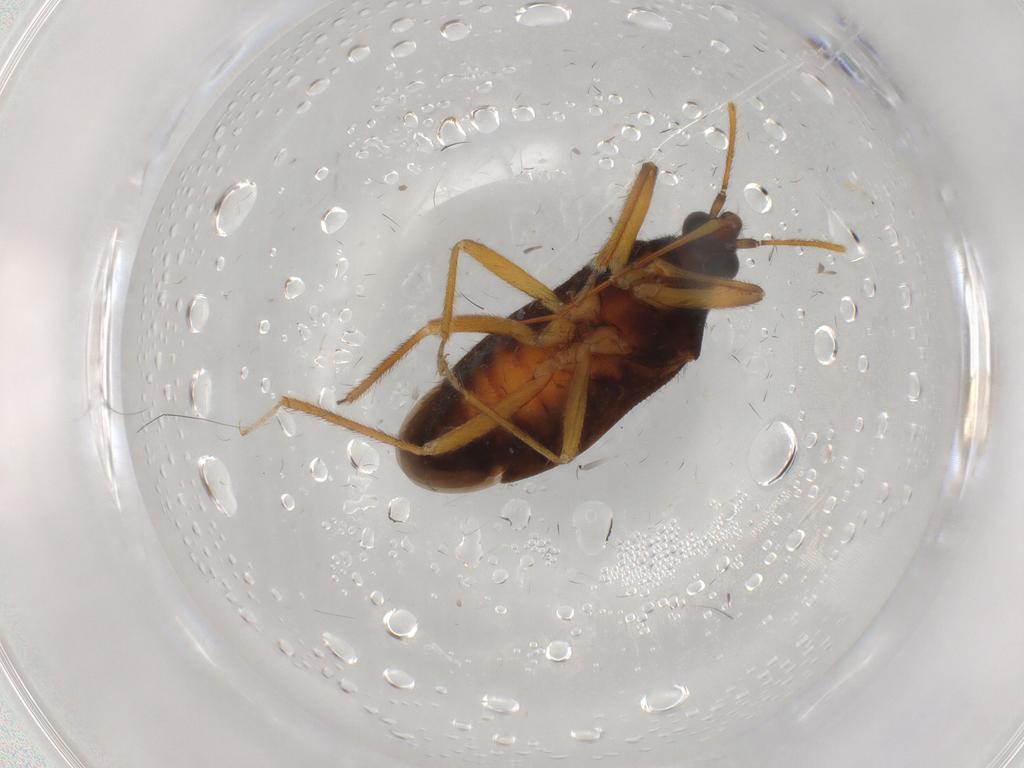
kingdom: Animalia
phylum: Arthropoda
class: Insecta
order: Hemiptera
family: Anthocoridae
